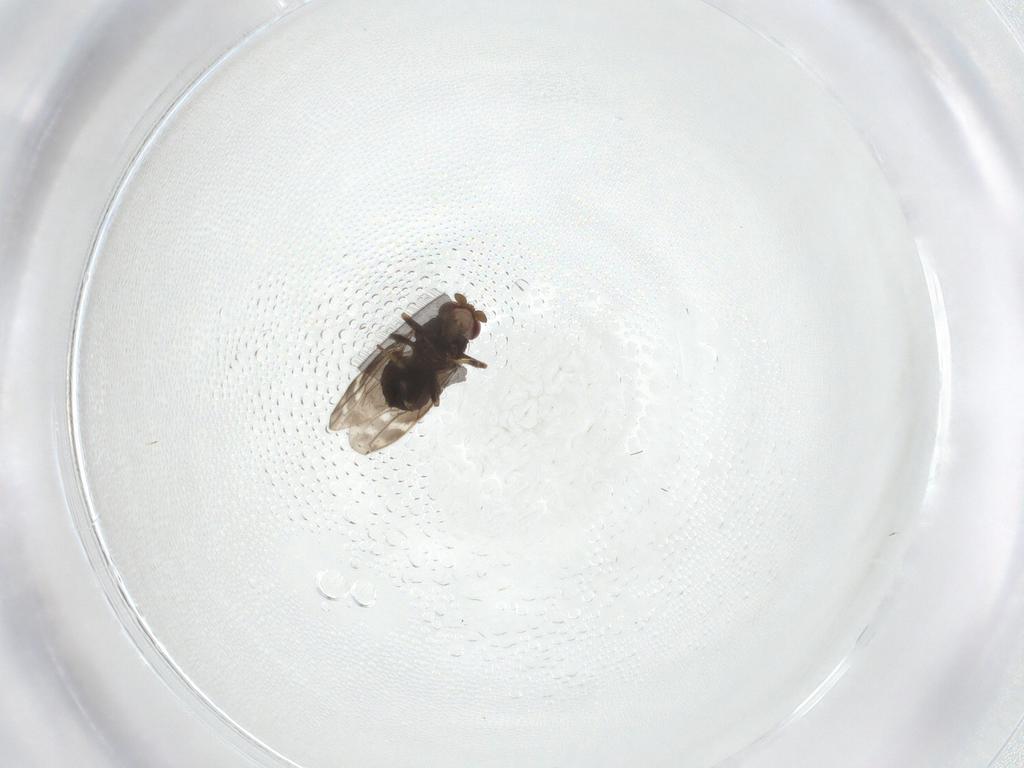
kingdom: Animalia
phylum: Arthropoda
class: Insecta
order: Diptera
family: Sphaeroceridae
